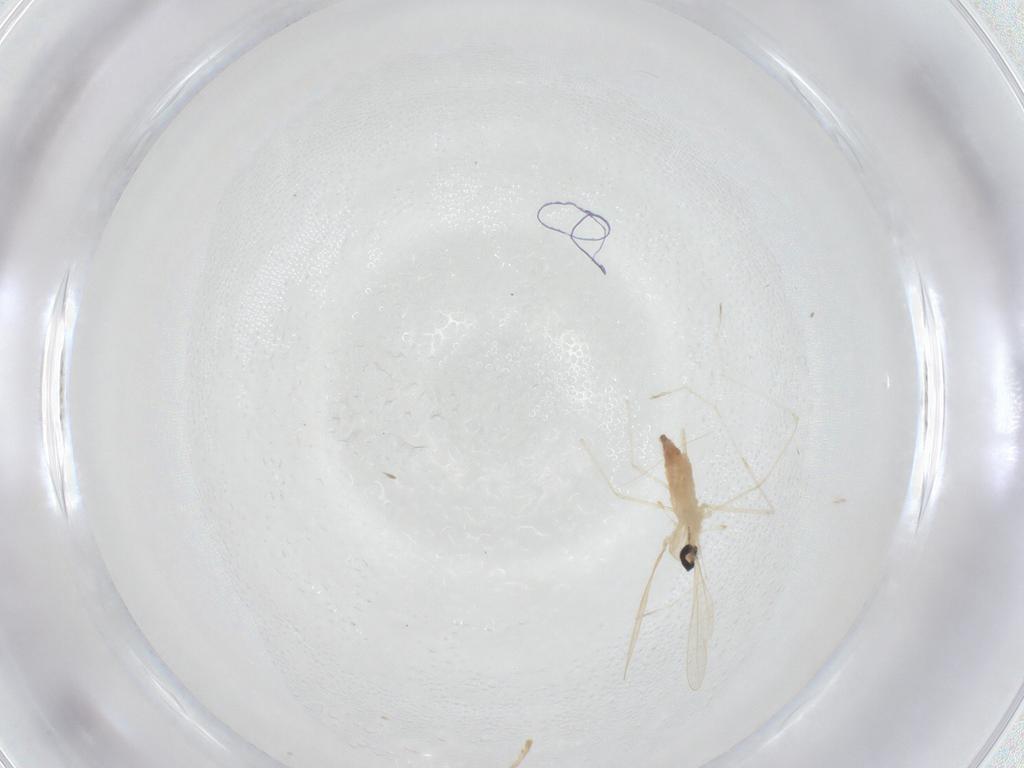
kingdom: Animalia
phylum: Arthropoda
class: Insecta
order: Diptera
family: Cecidomyiidae
